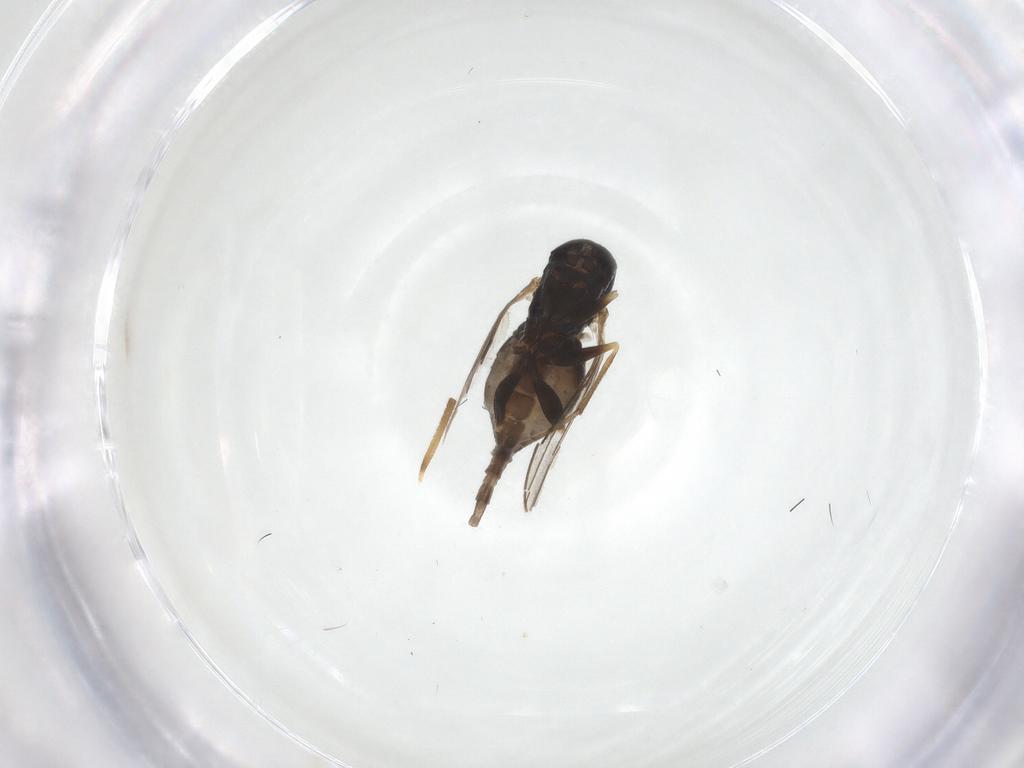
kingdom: Animalia
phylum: Arthropoda
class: Insecta
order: Diptera
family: Dolichopodidae
